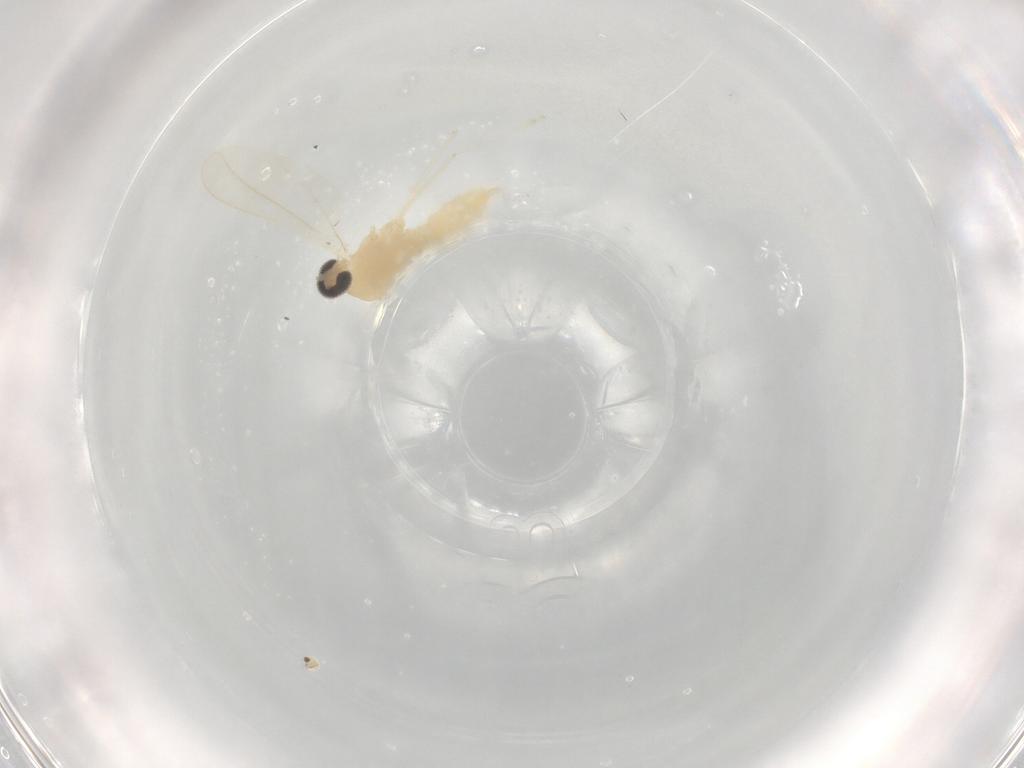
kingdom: Animalia
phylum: Arthropoda
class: Insecta
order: Diptera
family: Cecidomyiidae
